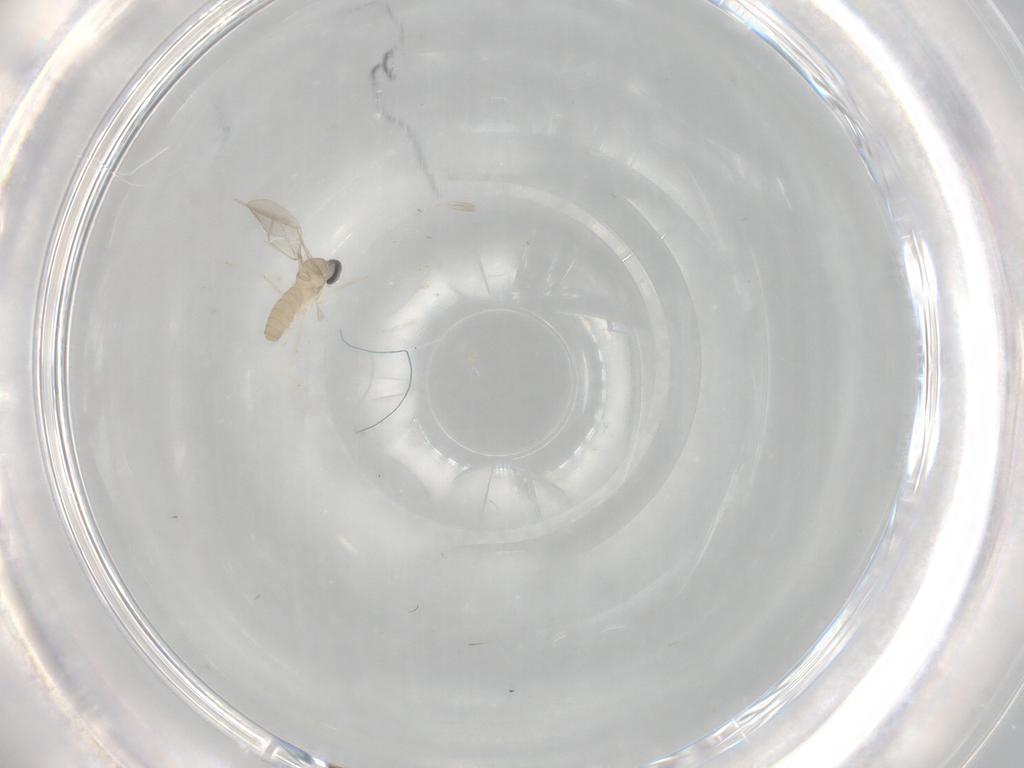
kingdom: Animalia
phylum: Arthropoda
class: Insecta
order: Diptera
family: Cecidomyiidae
